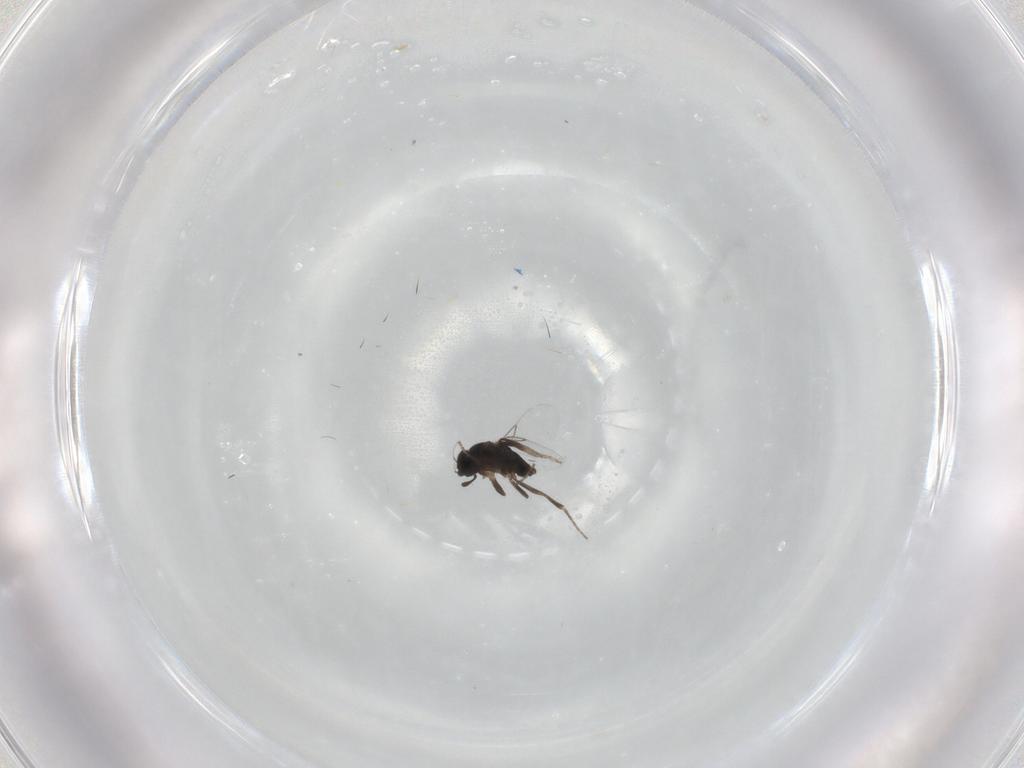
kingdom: Animalia
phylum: Arthropoda
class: Insecta
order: Diptera
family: Phoridae
